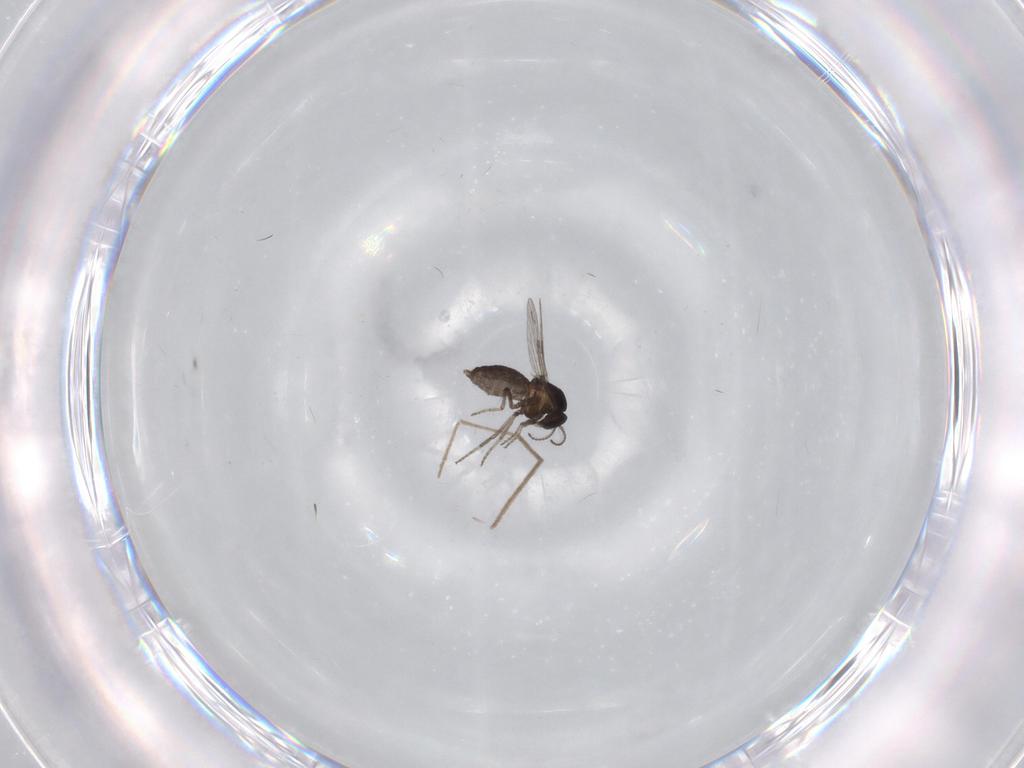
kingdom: Animalia
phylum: Arthropoda
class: Insecta
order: Diptera
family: Ceratopogonidae
